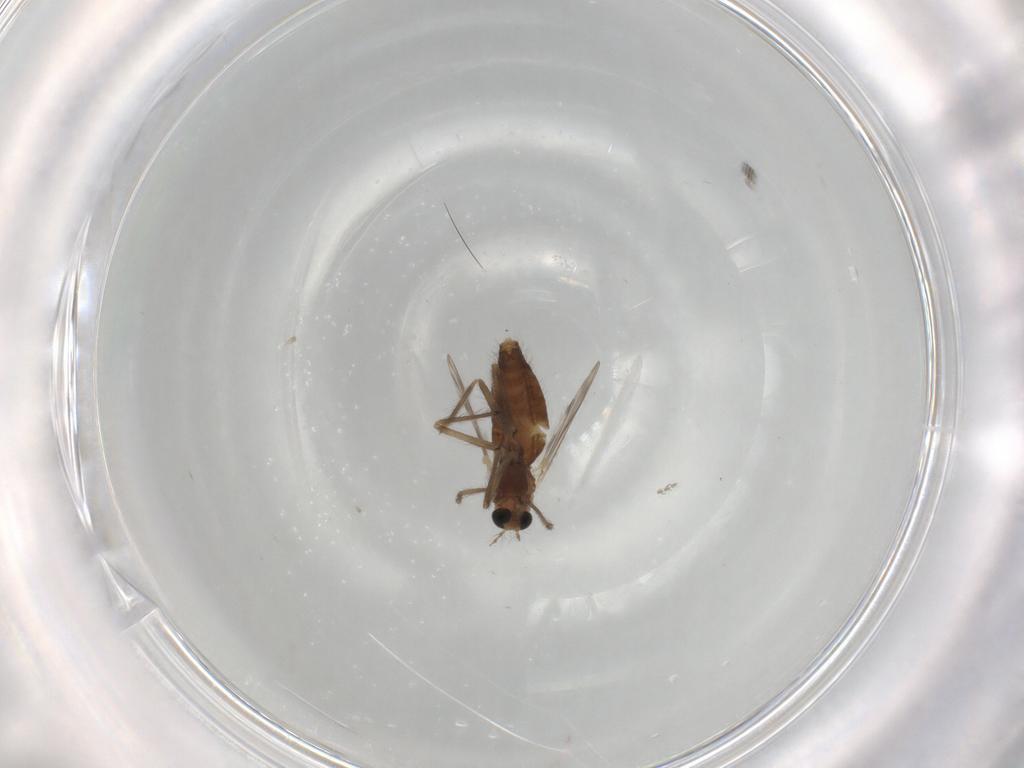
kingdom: Animalia
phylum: Arthropoda
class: Insecta
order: Diptera
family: Chironomidae
